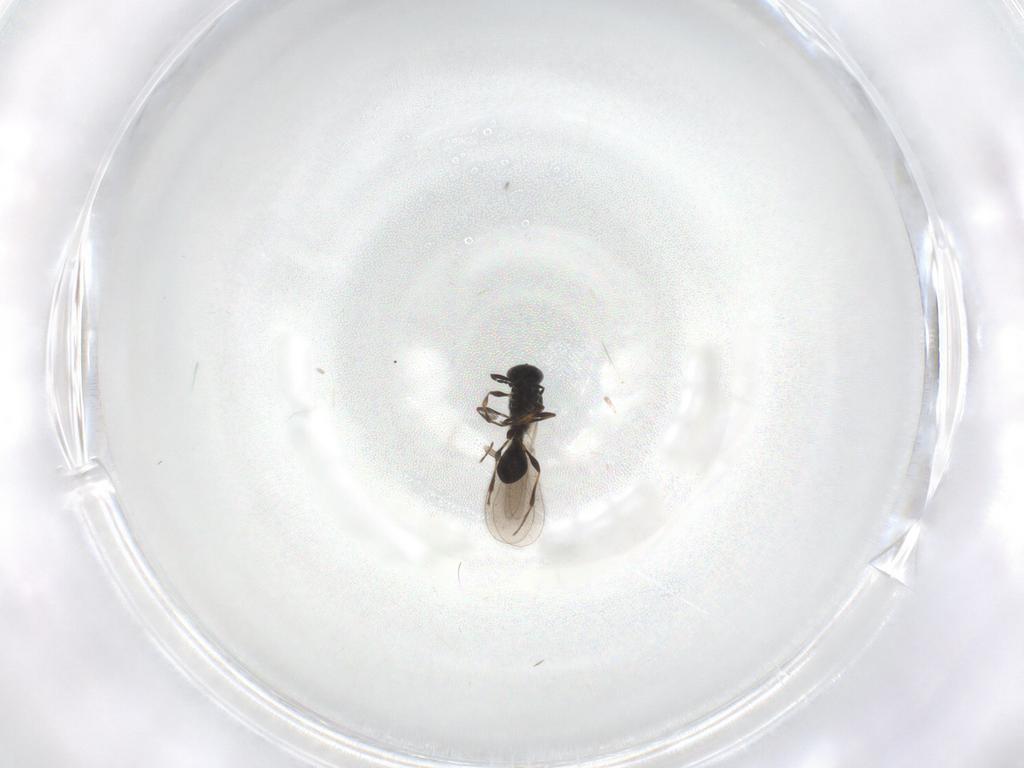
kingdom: Animalia
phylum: Arthropoda
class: Insecta
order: Hymenoptera
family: Platygastridae
